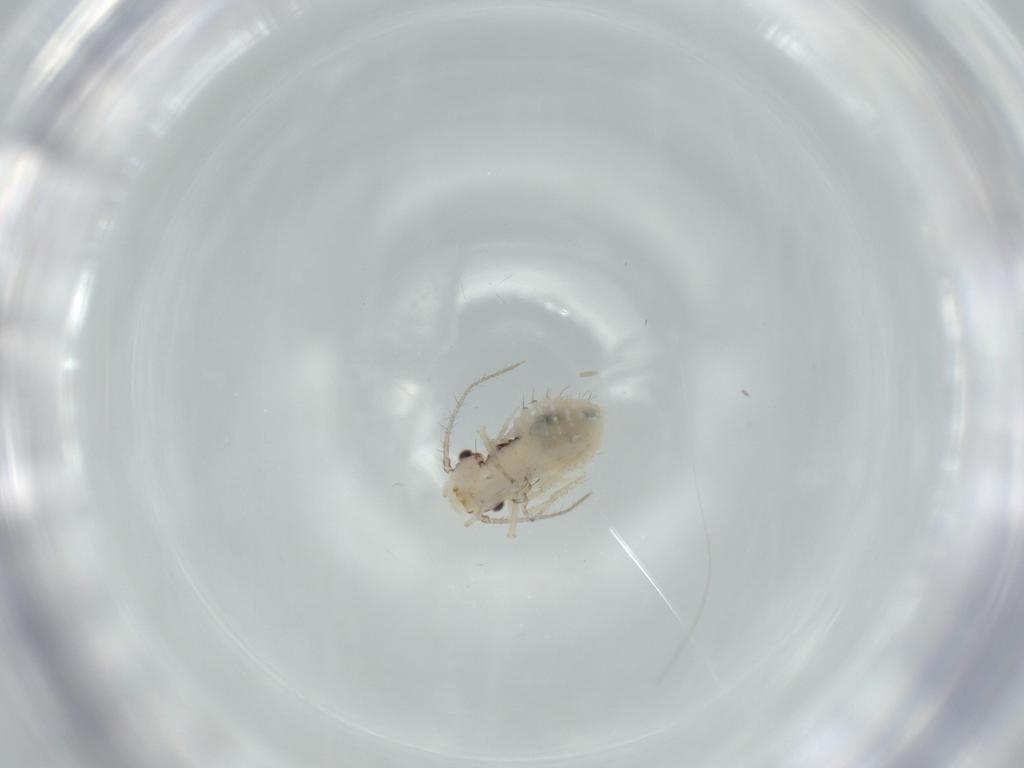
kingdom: Animalia
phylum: Arthropoda
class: Insecta
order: Psocodea
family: Pseudocaeciliidae
